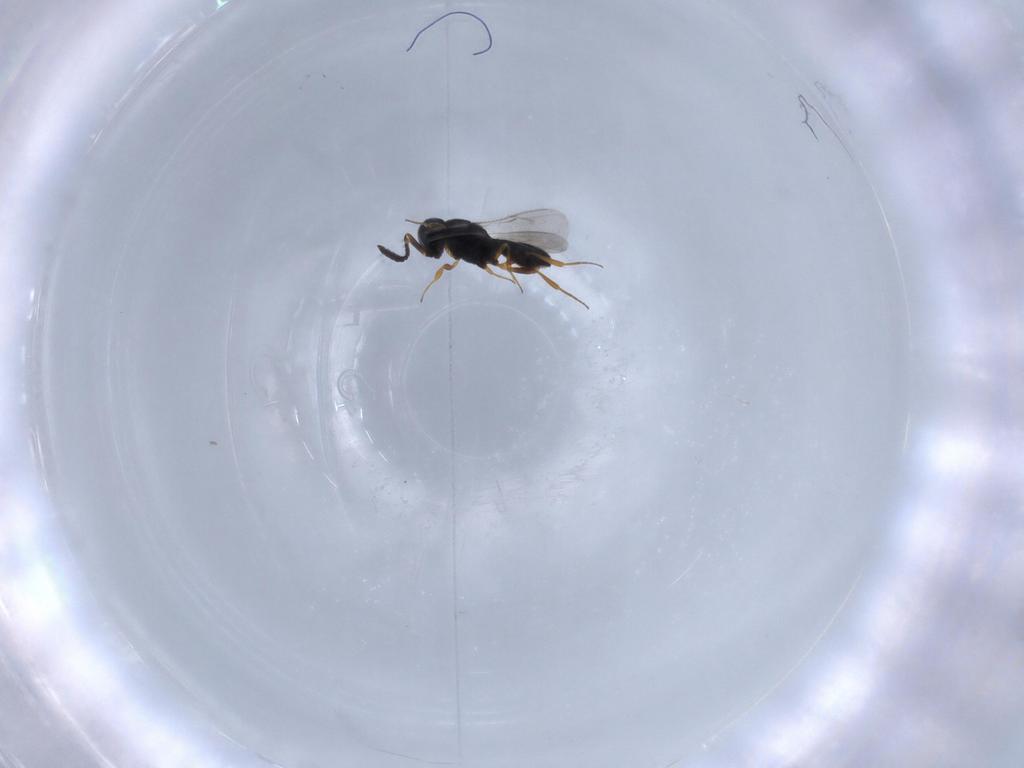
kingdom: Animalia
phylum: Arthropoda
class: Insecta
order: Hymenoptera
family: Scelionidae
